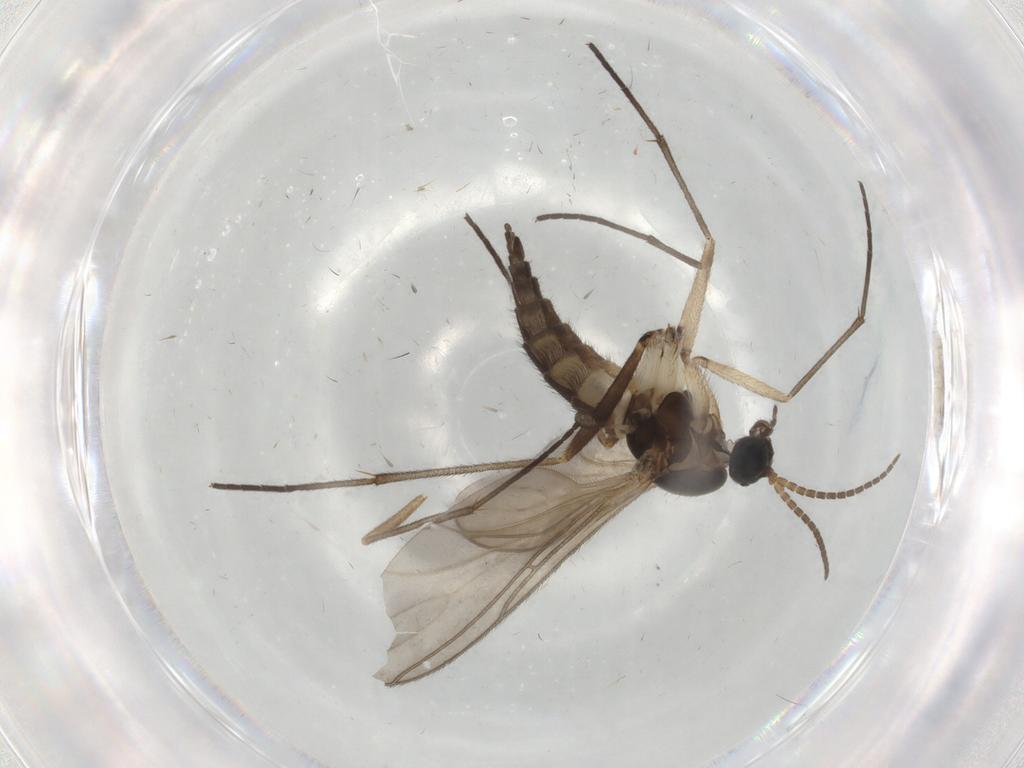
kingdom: Animalia
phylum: Arthropoda
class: Insecta
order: Diptera
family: Sciaridae
